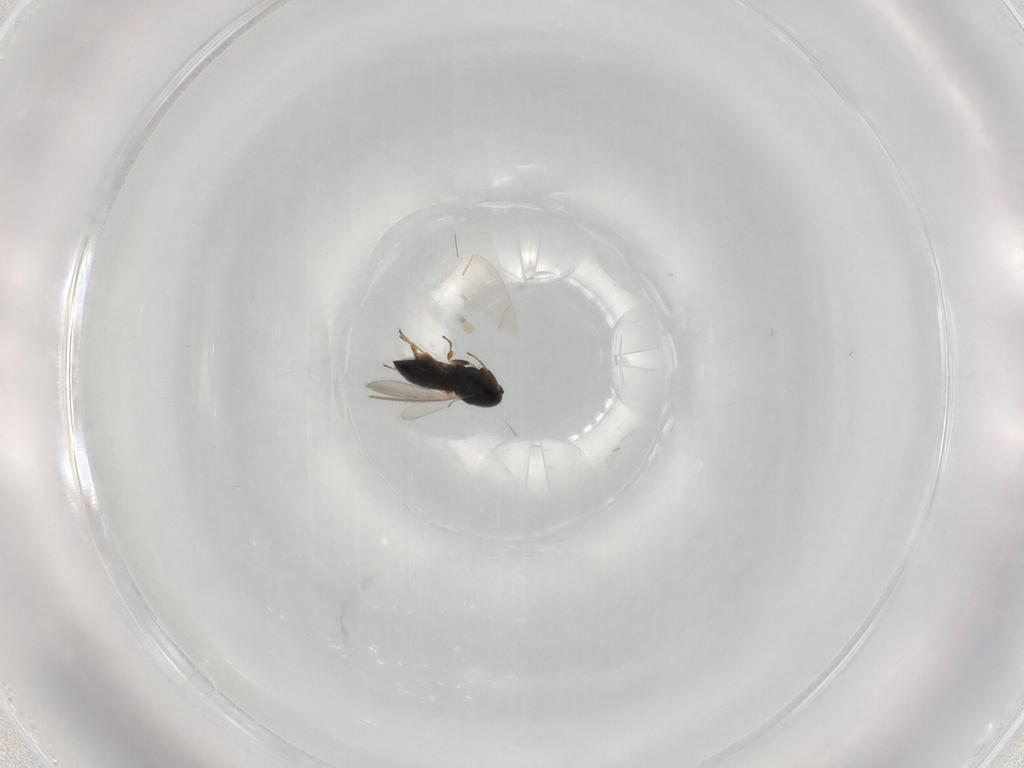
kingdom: Animalia
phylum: Arthropoda
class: Insecta
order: Hymenoptera
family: Scelionidae
